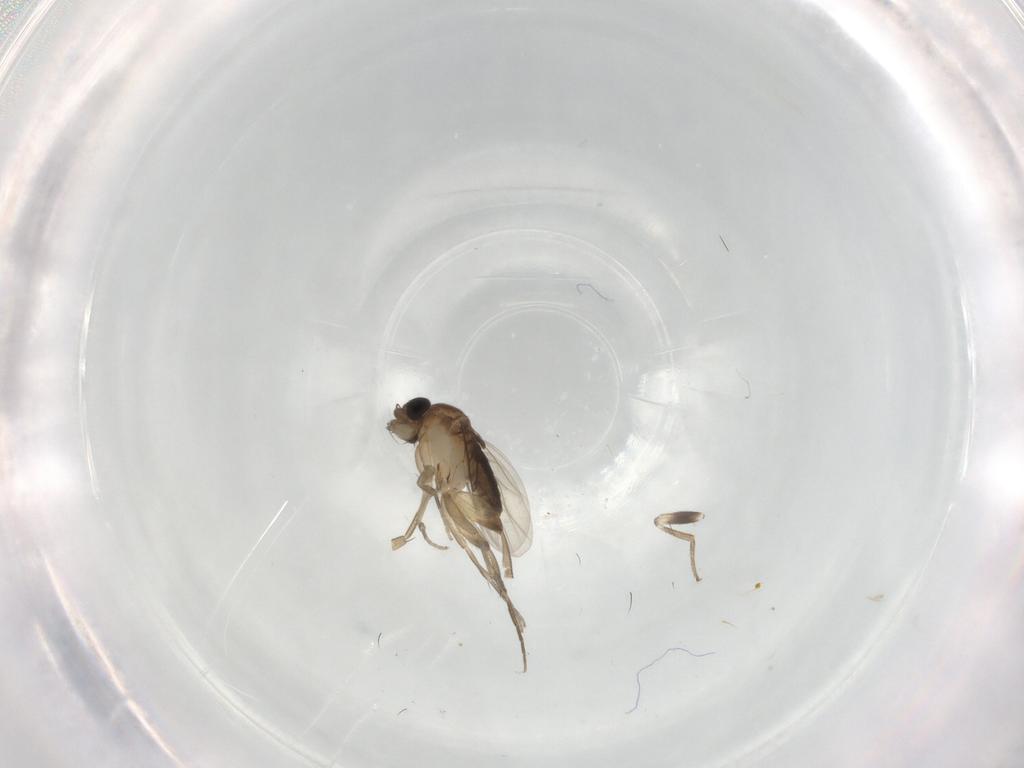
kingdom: Animalia
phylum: Arthropoda
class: Insecta
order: Diptera
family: Phoridae
